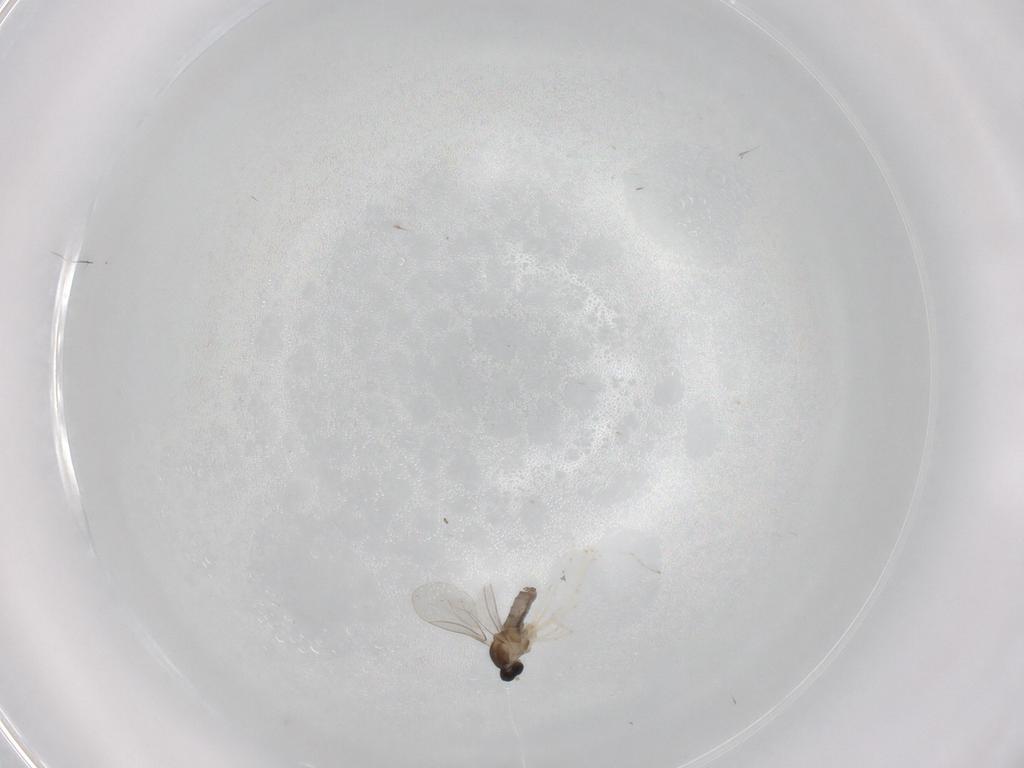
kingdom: Animalia
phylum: Arthropoda
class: Insecta
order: Diptera
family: Cecidomyiidae
